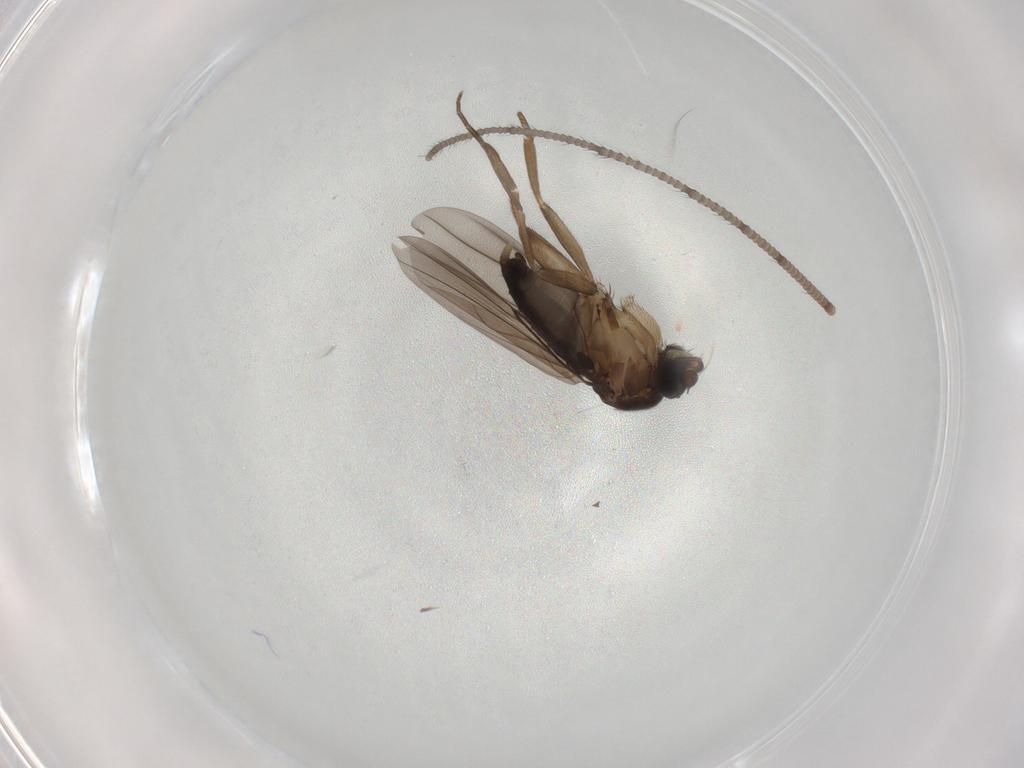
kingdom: Animalia
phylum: Arthropoda
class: Insecta
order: Diptera
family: Phoridae
